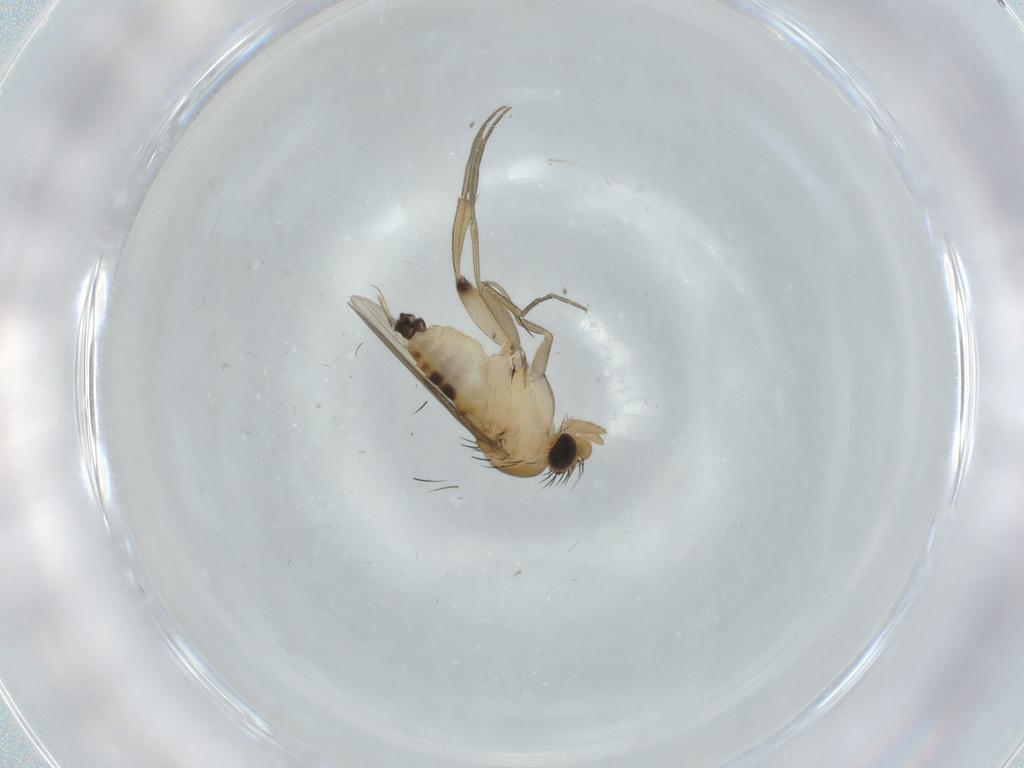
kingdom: Animalia
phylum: Arthropoda
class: Insecta
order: Diptera
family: Phoridae
